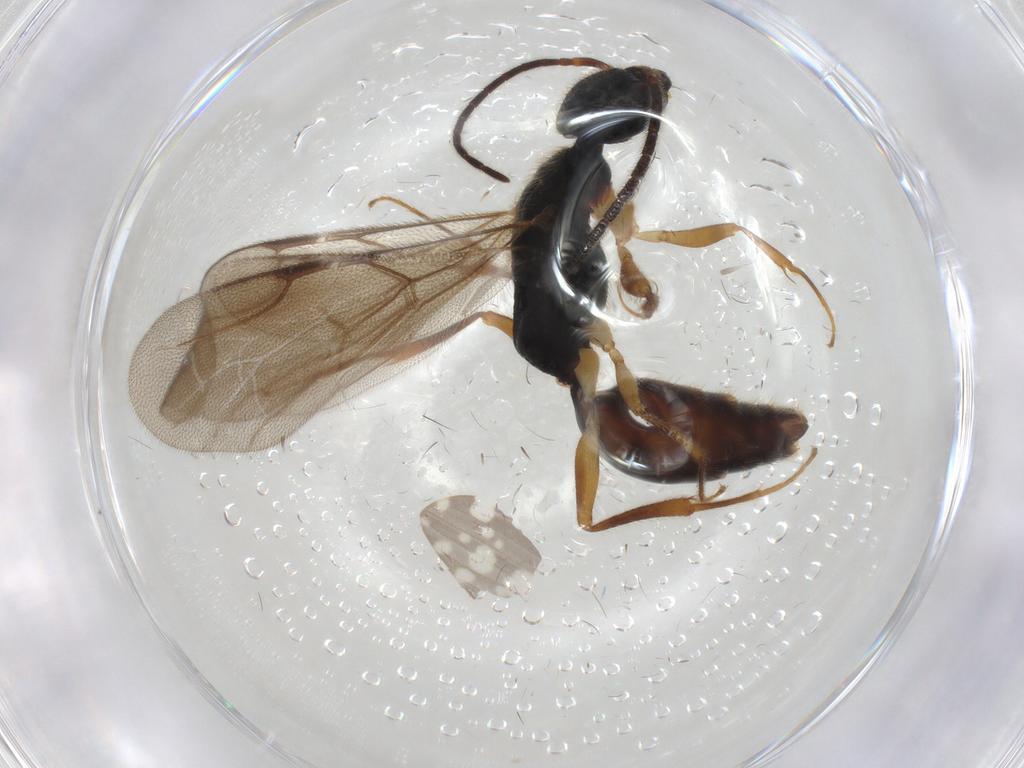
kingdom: Animalia
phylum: Arthropoda
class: Insecta
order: Hymenoptera
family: Bethylidae
